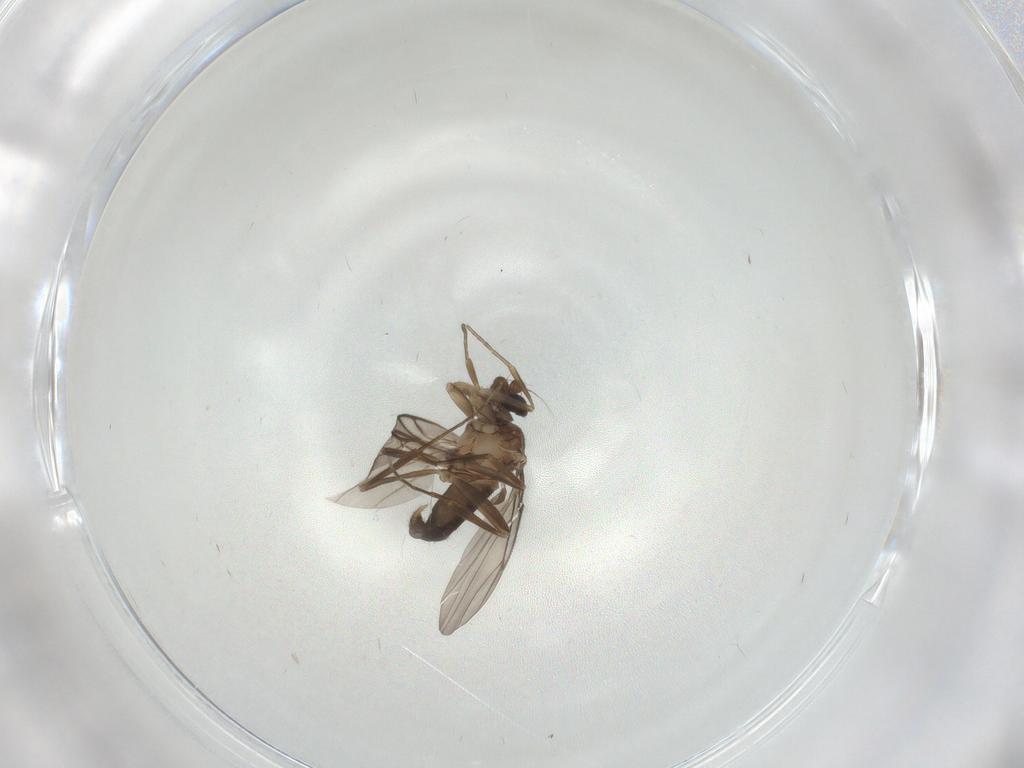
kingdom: Animalia
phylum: Arthropoda
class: Insecta
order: Diptera
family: Phoridae
